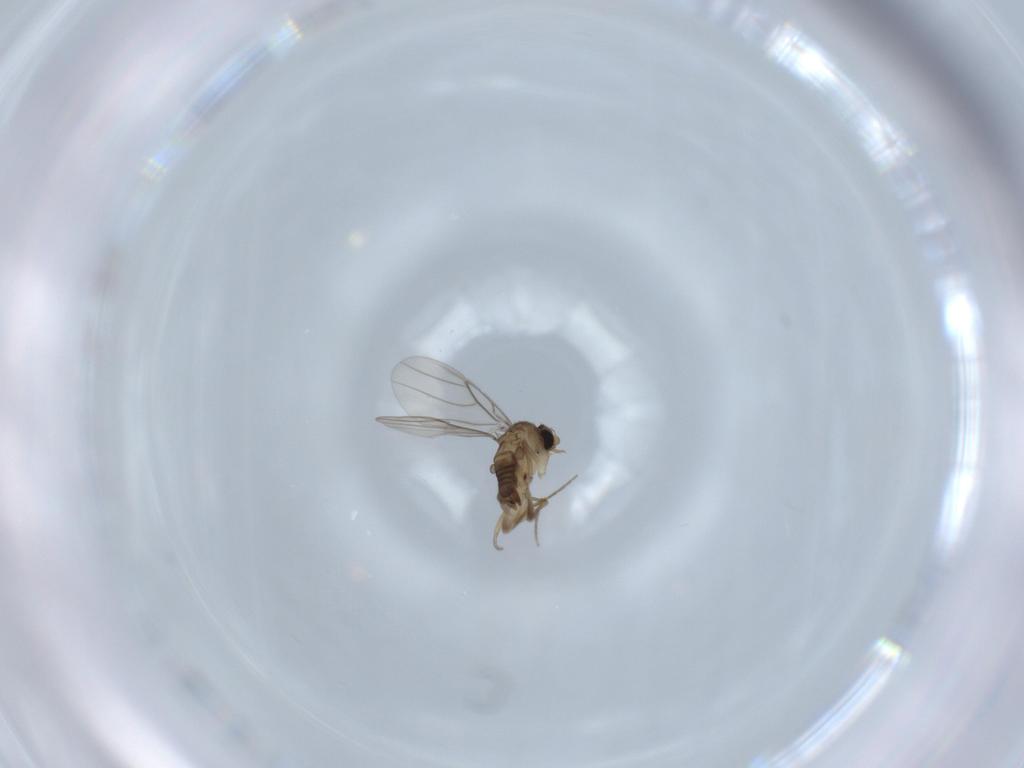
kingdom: Animalia
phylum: Arthropoda
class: Insecta
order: Diptera
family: Phoridae
